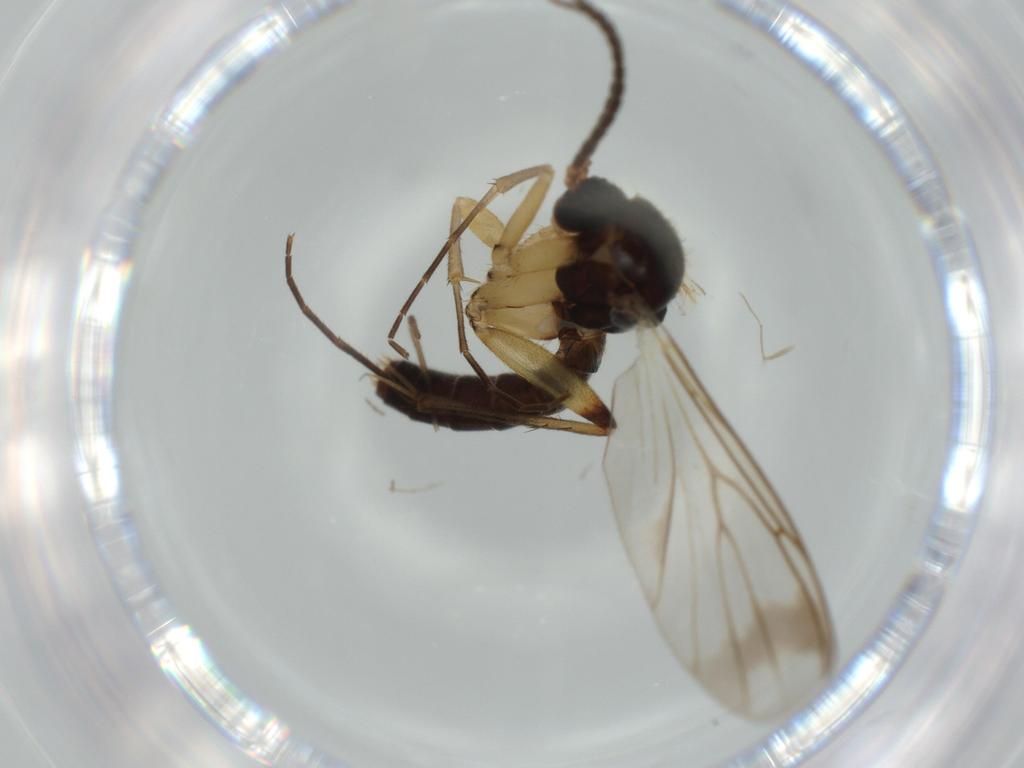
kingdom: Animalia
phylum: Arthropoda
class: Insecta
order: Diptera
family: Mycetophilidae
